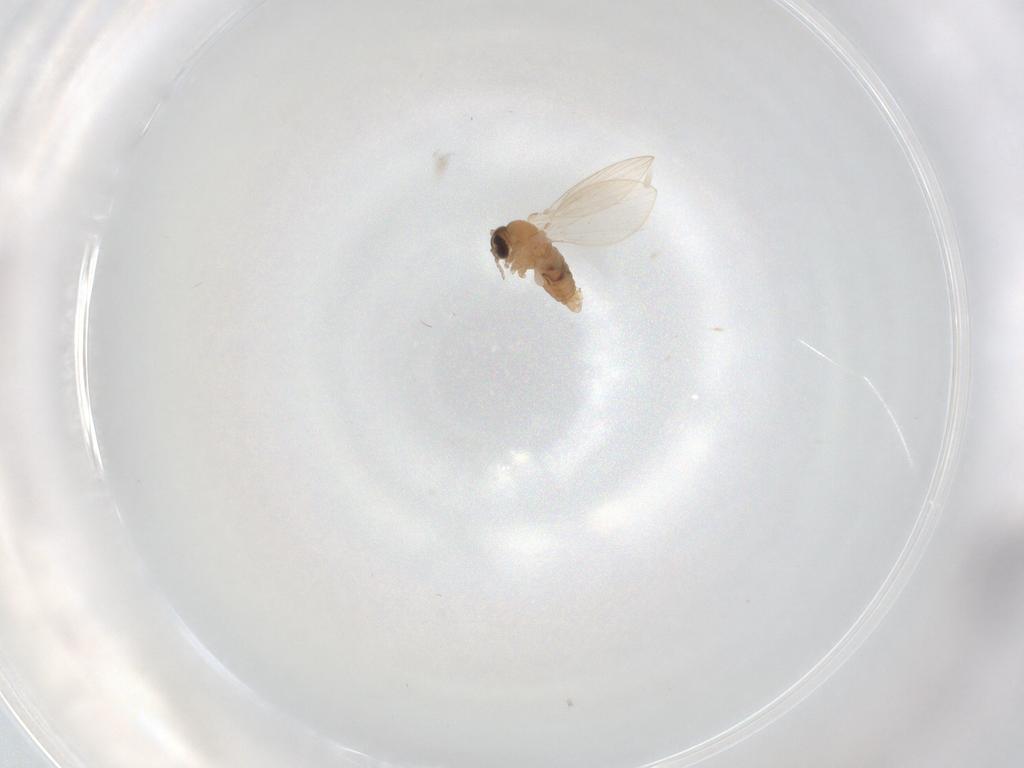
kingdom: Animalia
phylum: Arthropoda
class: Insecta
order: Diptera
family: Psychodidae
